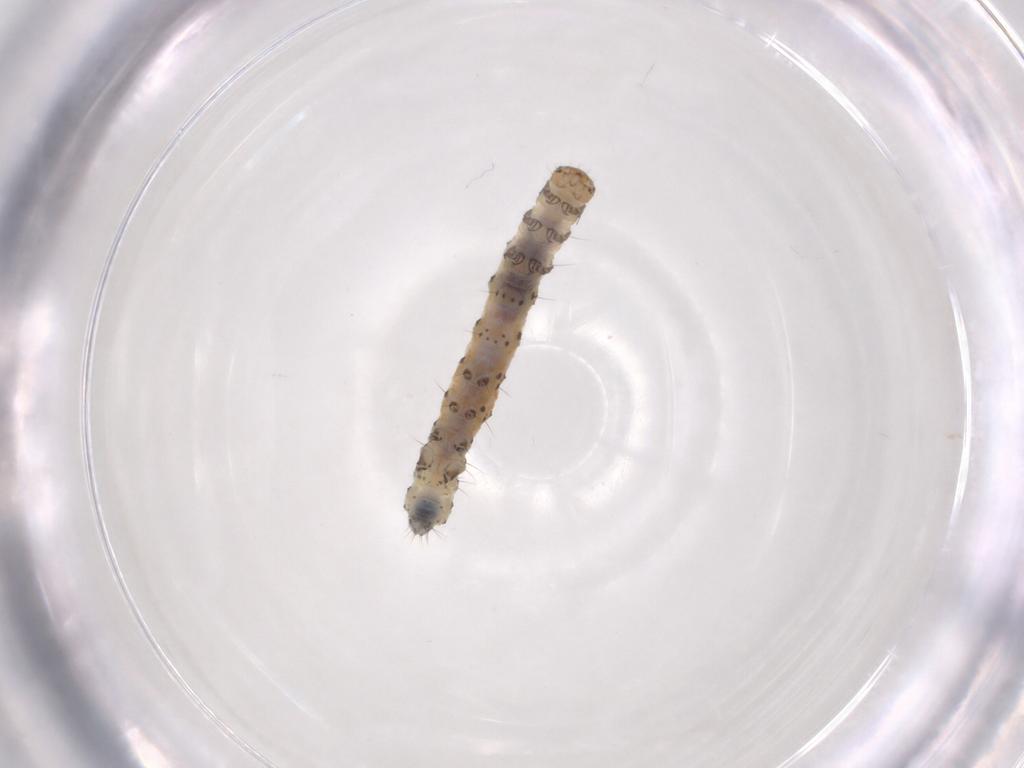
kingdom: Animalia
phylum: Arthropoda
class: Insecta
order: Lepidoptera
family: Noctuidae
